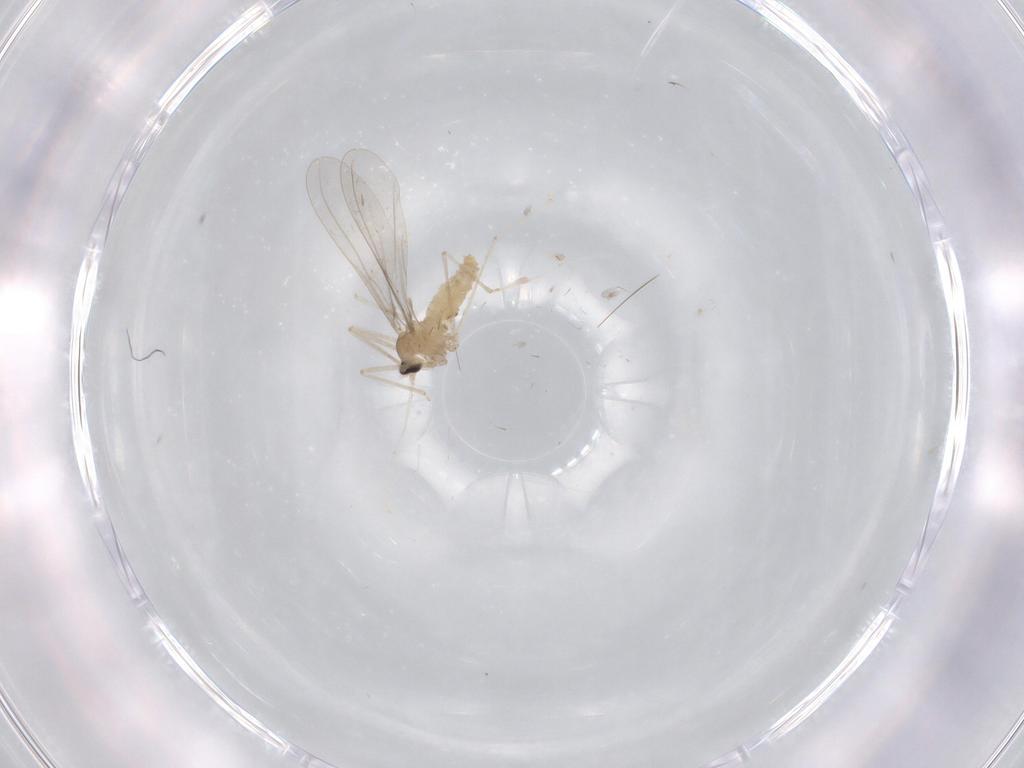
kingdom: Animalia
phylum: Arthropoda
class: Insecta
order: Diptera
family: Cecidomyiidae
